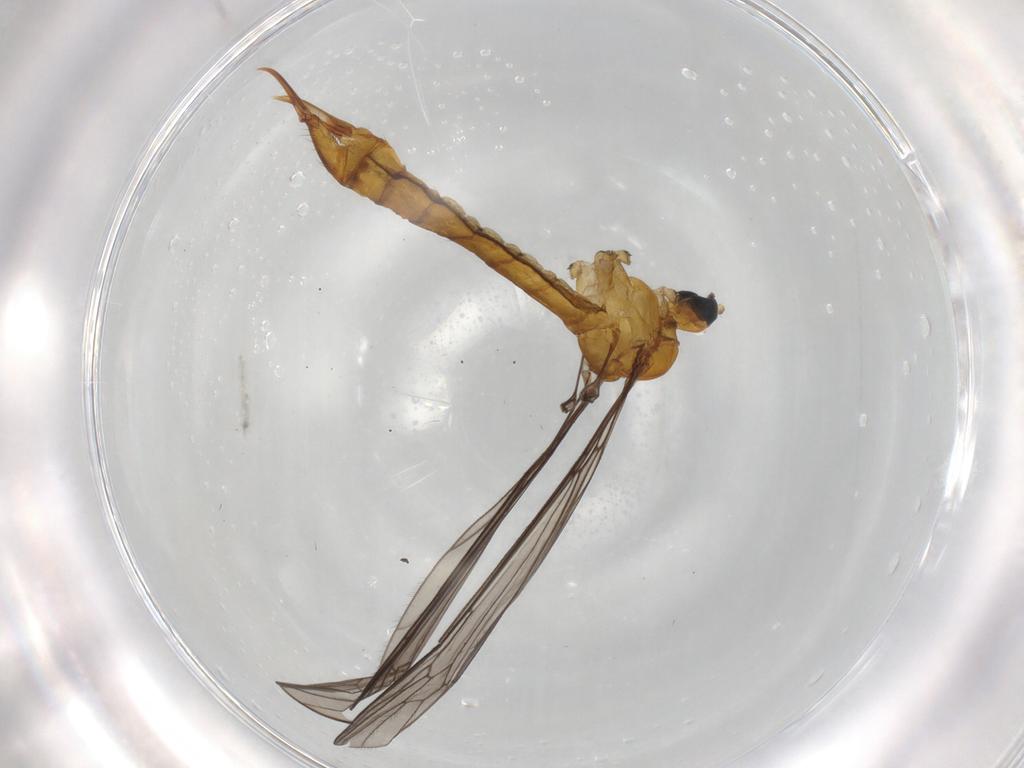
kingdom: Animalia
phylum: Arthropoda
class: Insecta
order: Diptera
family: Limoniidae
